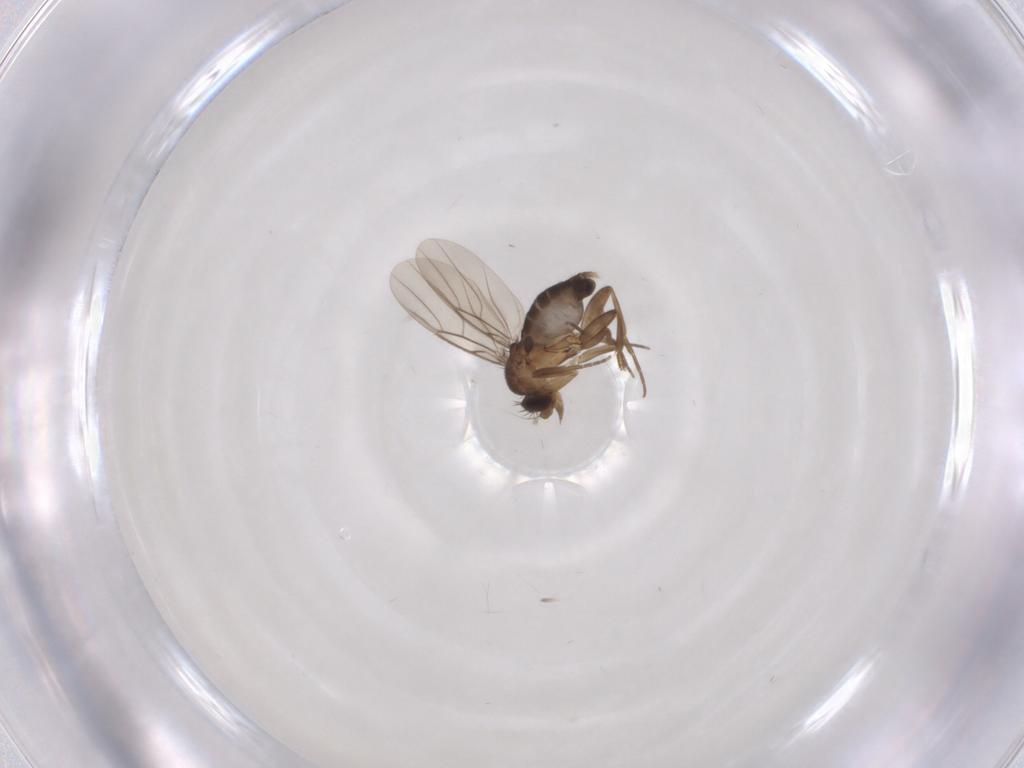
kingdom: Animalia
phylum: Arthropoda
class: Insecta
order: Diptera
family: Phoridae
